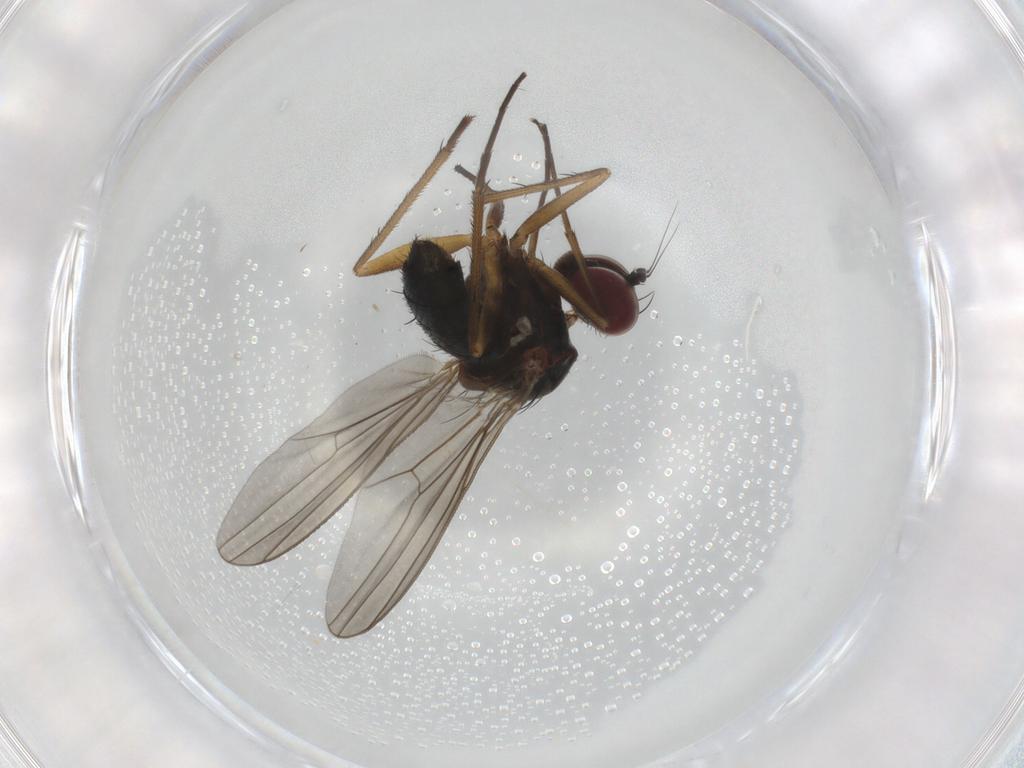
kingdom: Animalia
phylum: Arthropoda
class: Insecta
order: Diptera
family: Dolichopodidae
